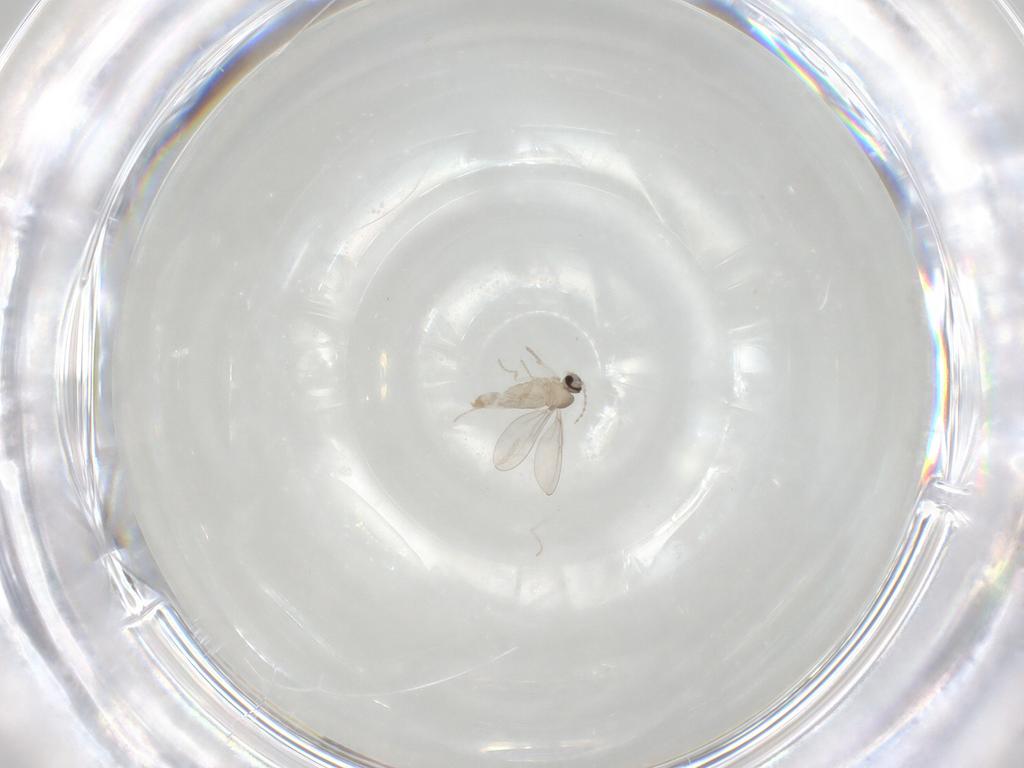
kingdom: Animalia
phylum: Arthropoda
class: Insecta
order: Diptera
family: Cecidomyiidae
